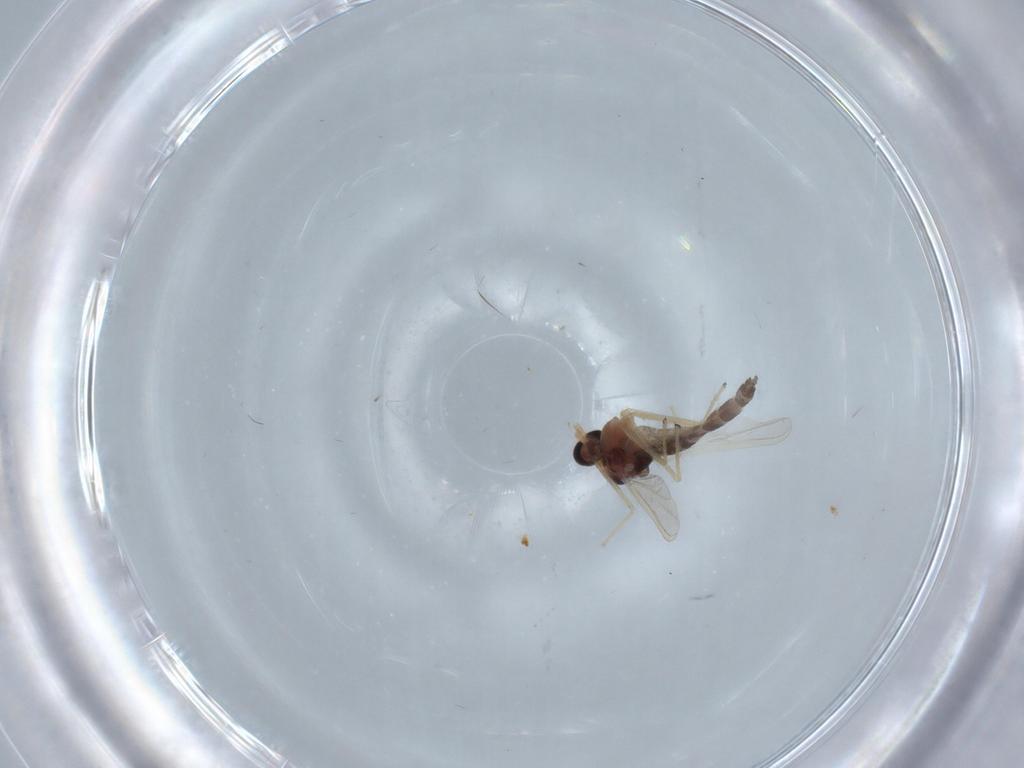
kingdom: Animalia
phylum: Arthropoda
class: Insecta
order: Diptera
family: Chironomidae
